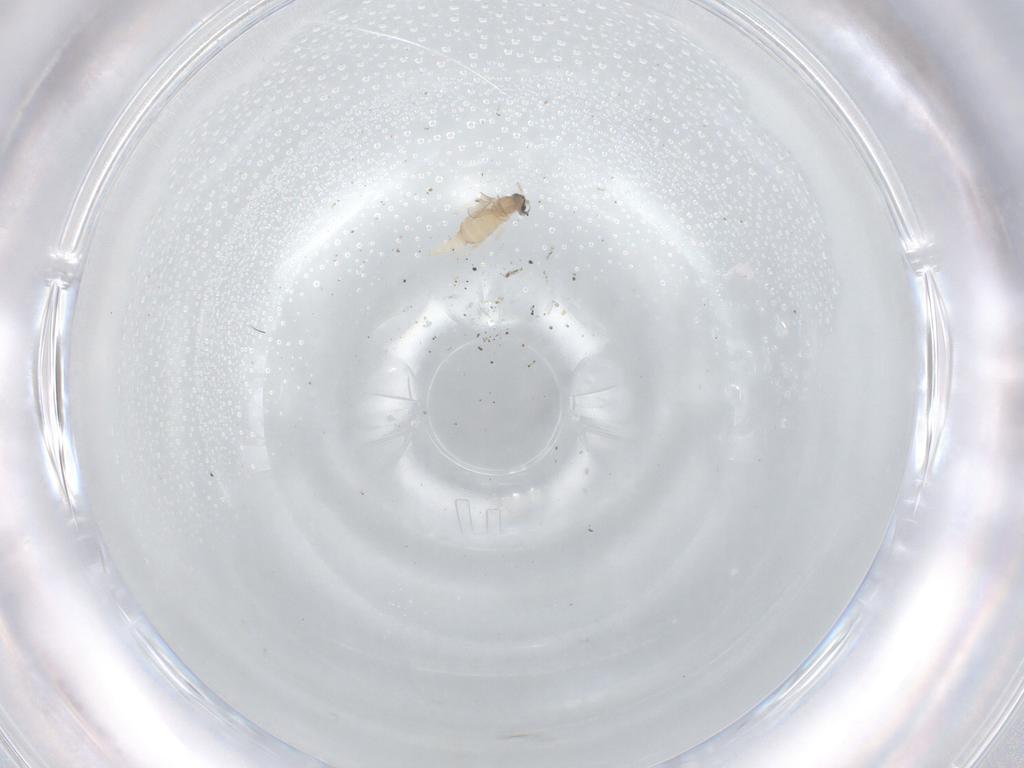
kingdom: Animalia
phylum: Arthropoda
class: Insecta
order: Diptera
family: Cecidomyiidae
